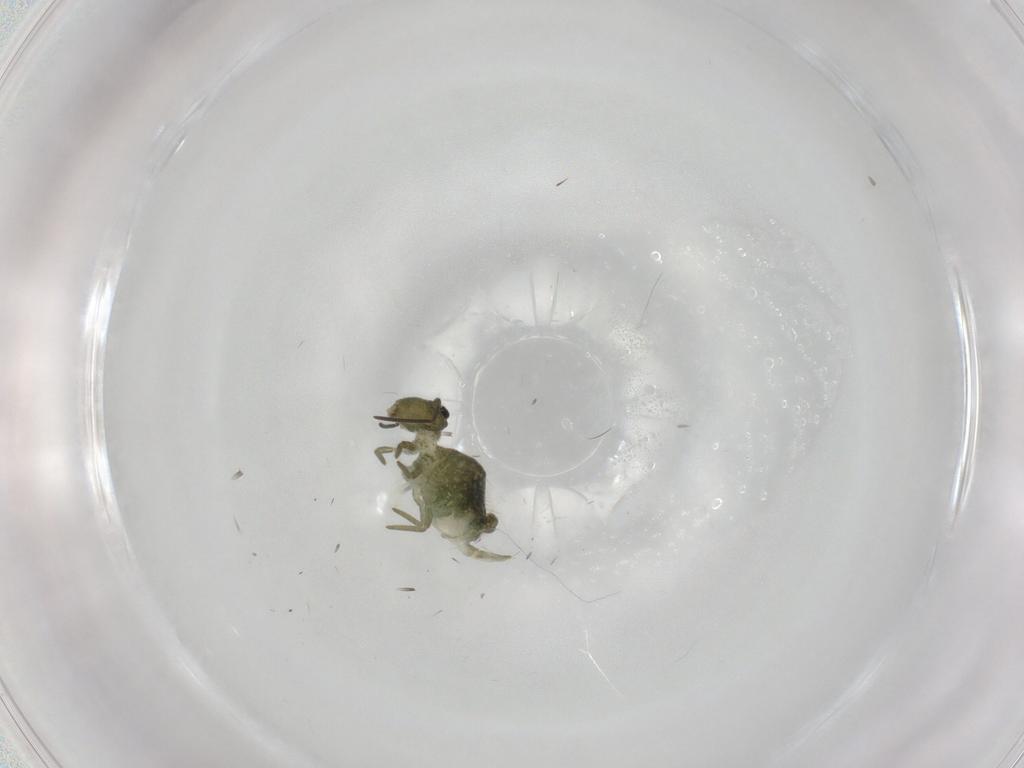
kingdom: Animalia
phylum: Arthropoda
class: Collembola
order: Symphypleona
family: Sminthuridae
